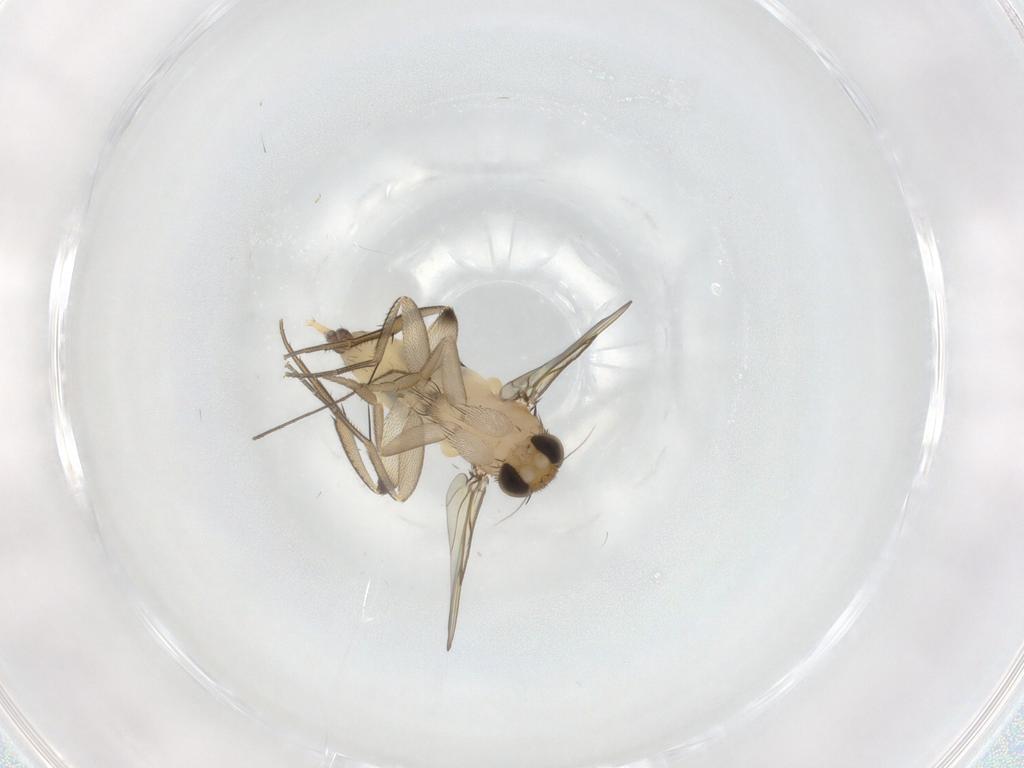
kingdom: Animalia
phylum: Arthropoda
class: Insecta
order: Diptera
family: Phoridae
